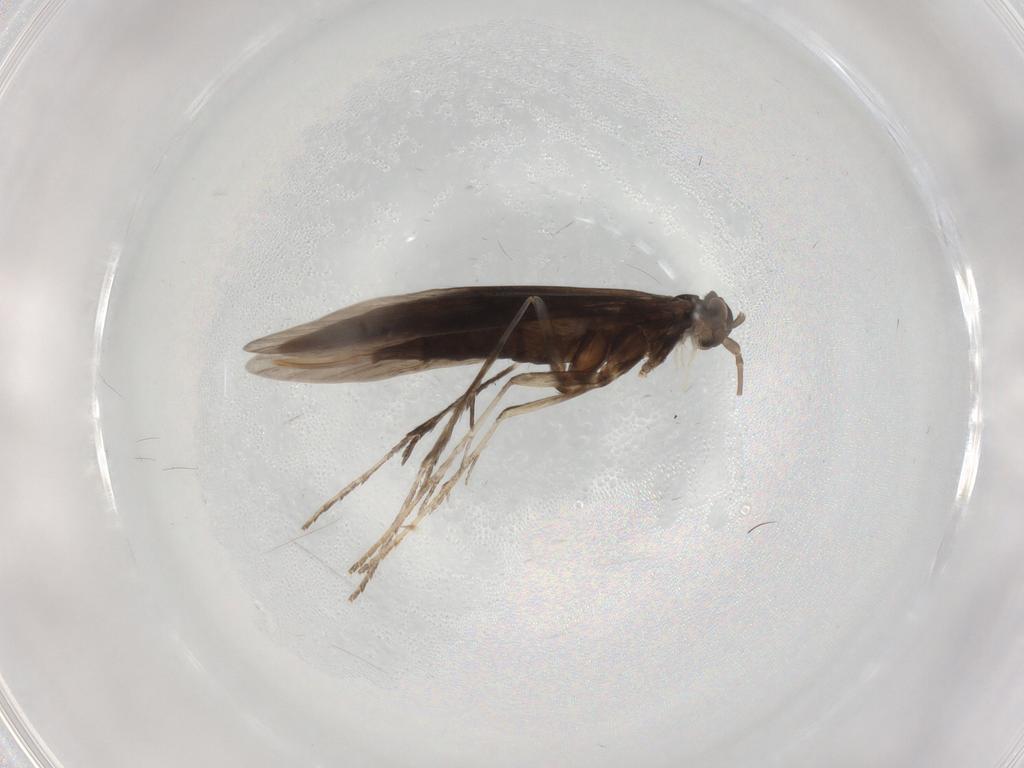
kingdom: Animalia
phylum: Arthropoda
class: Insecta
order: Trichoptera
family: Xiphocentronidae
